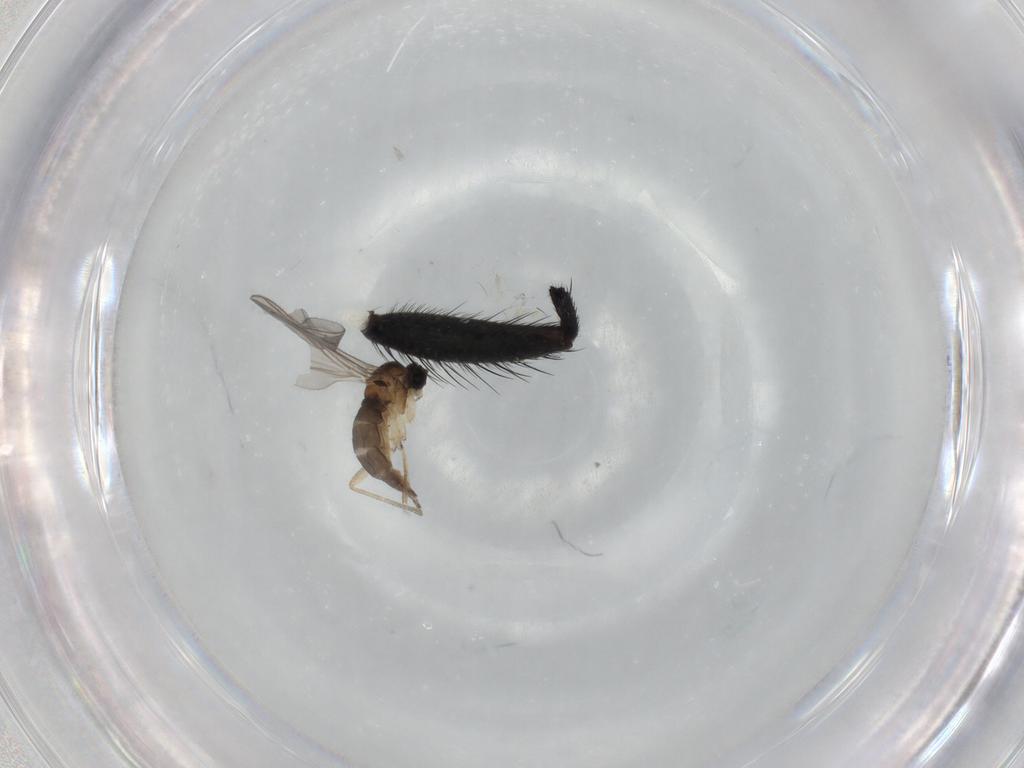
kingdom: Animalia
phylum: Arthropoda
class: Insecta
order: Diptera
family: Sciaridae
